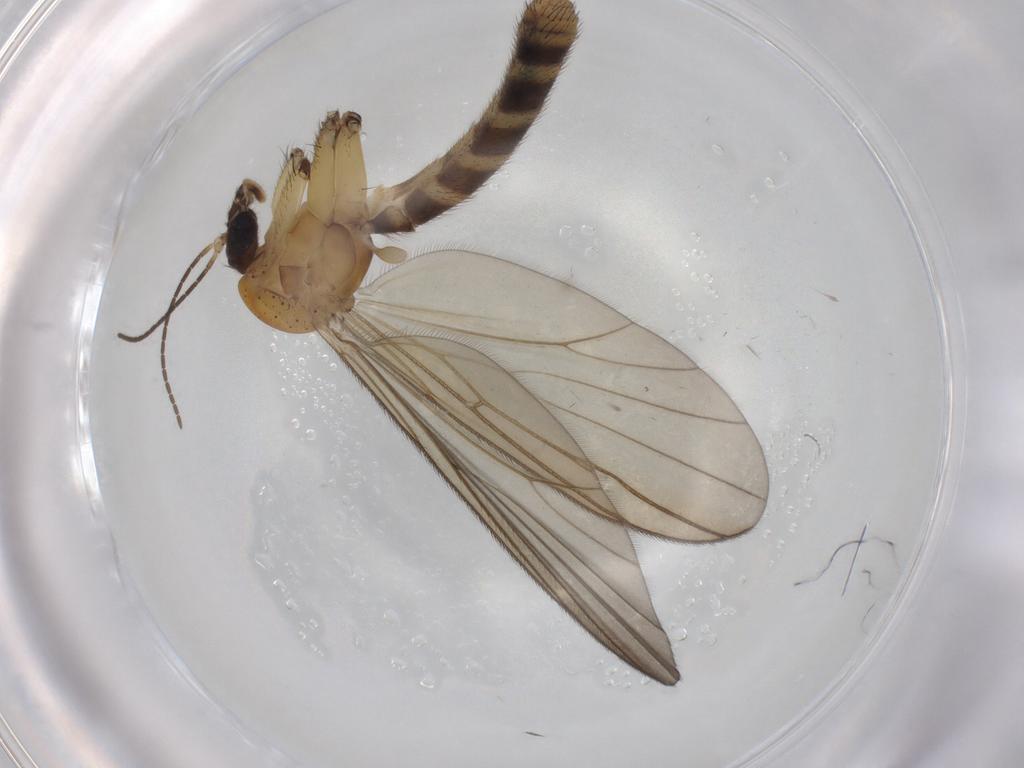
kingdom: Animalia
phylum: Arthropoda
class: Insecta
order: Diptera
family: Mycetophilidae
